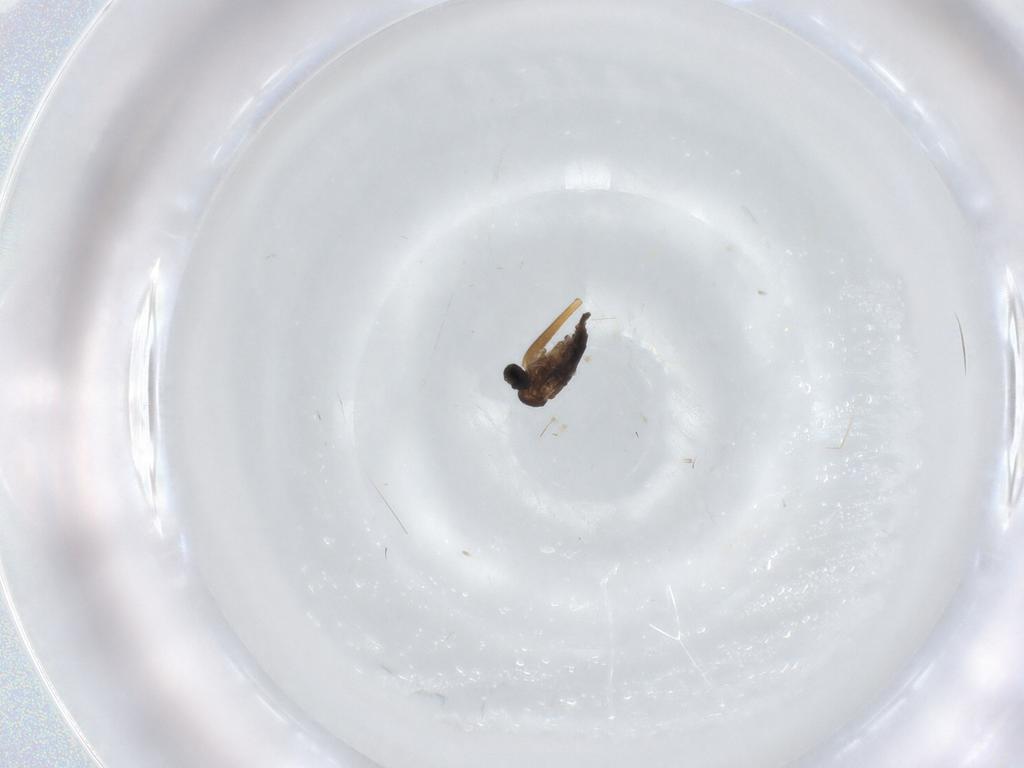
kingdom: Animalia
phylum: Arthropoda
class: Insecta
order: Diptera
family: Sciaridae
